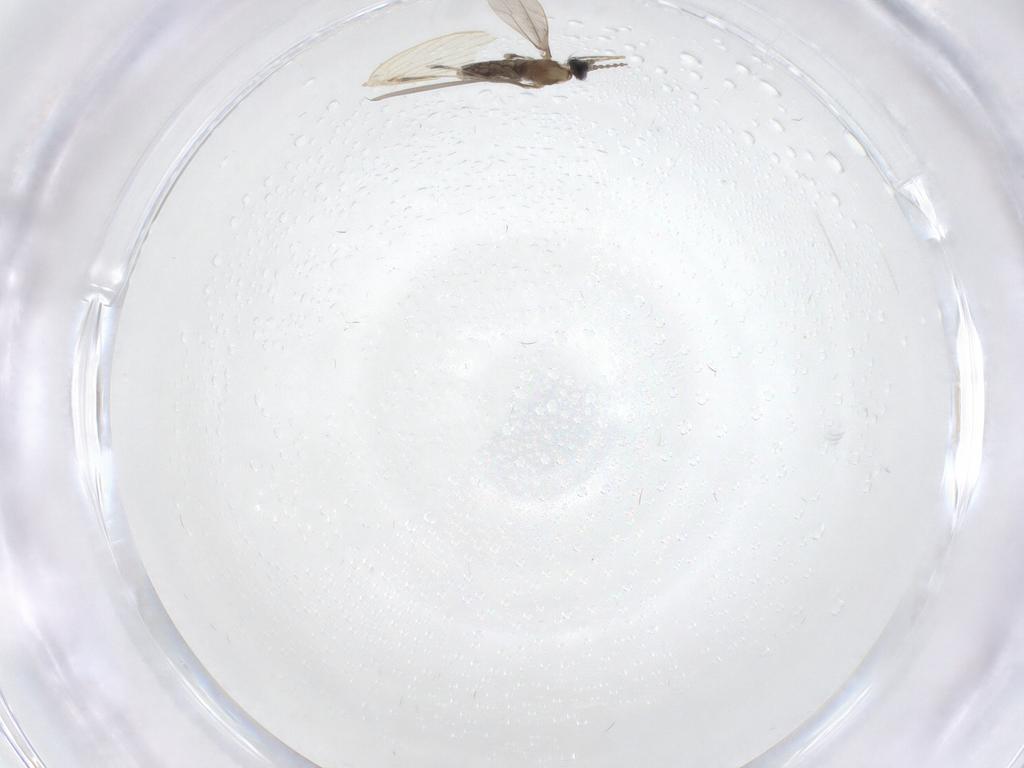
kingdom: Animalia
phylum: Arthropoda
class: Insecta
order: Diptera
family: Cecidomyiidae
